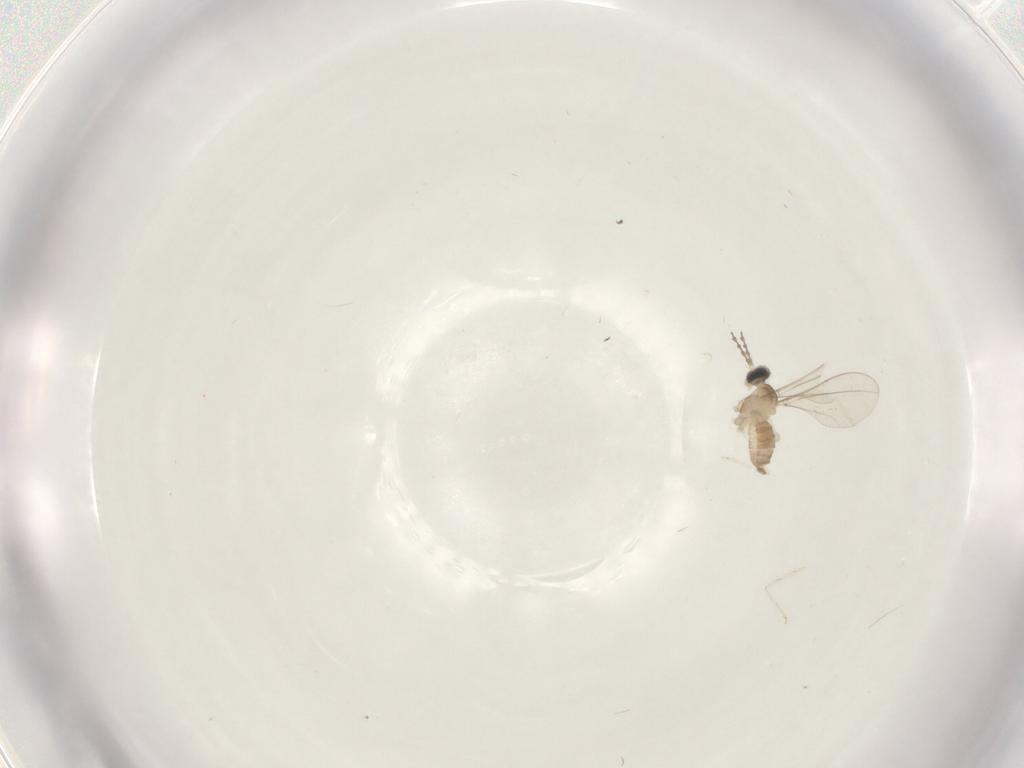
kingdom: Animalia
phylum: Arthropoda
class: Insecta
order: Diptera
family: Cecidomyiidae
